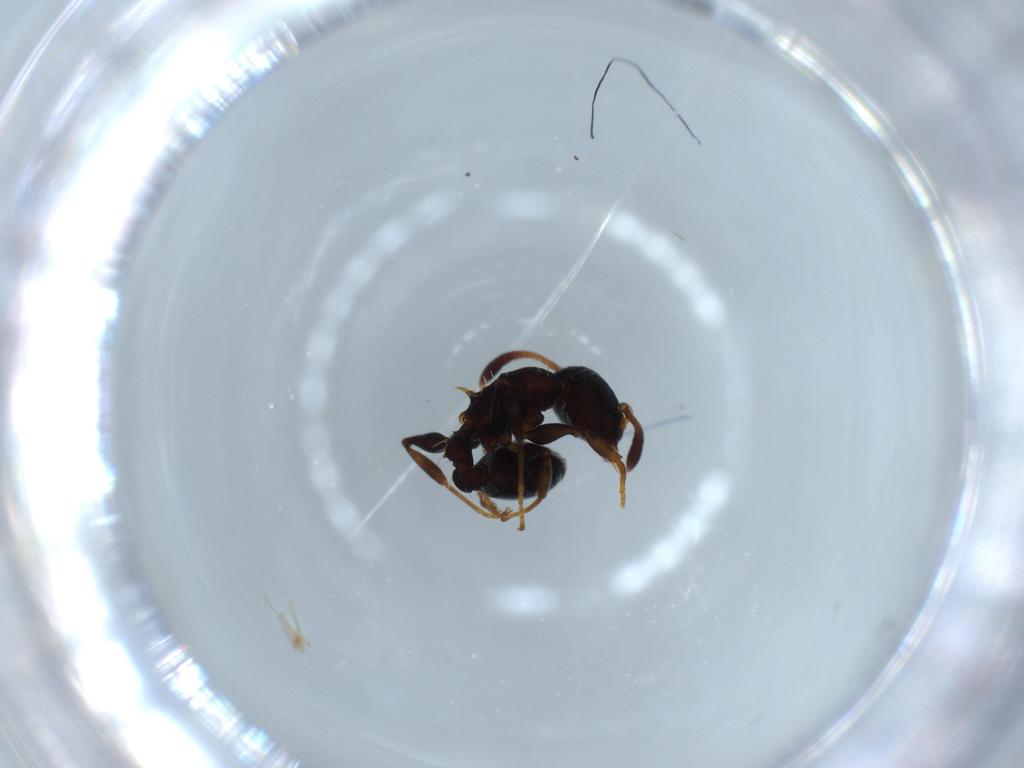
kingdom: Animalia
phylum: Arthropoda
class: Insecta
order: Hymenoptera
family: Formicidae
